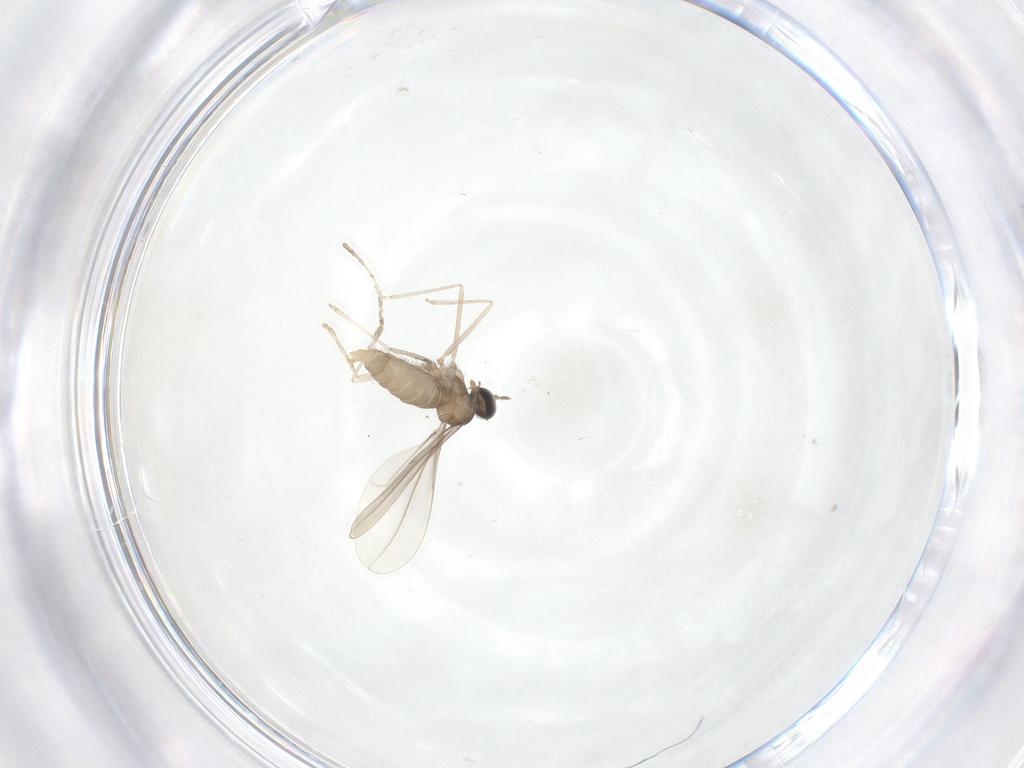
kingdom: Animalia
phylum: Arthropoda
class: Insecta
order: Diptera
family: Cecidomyiidae
